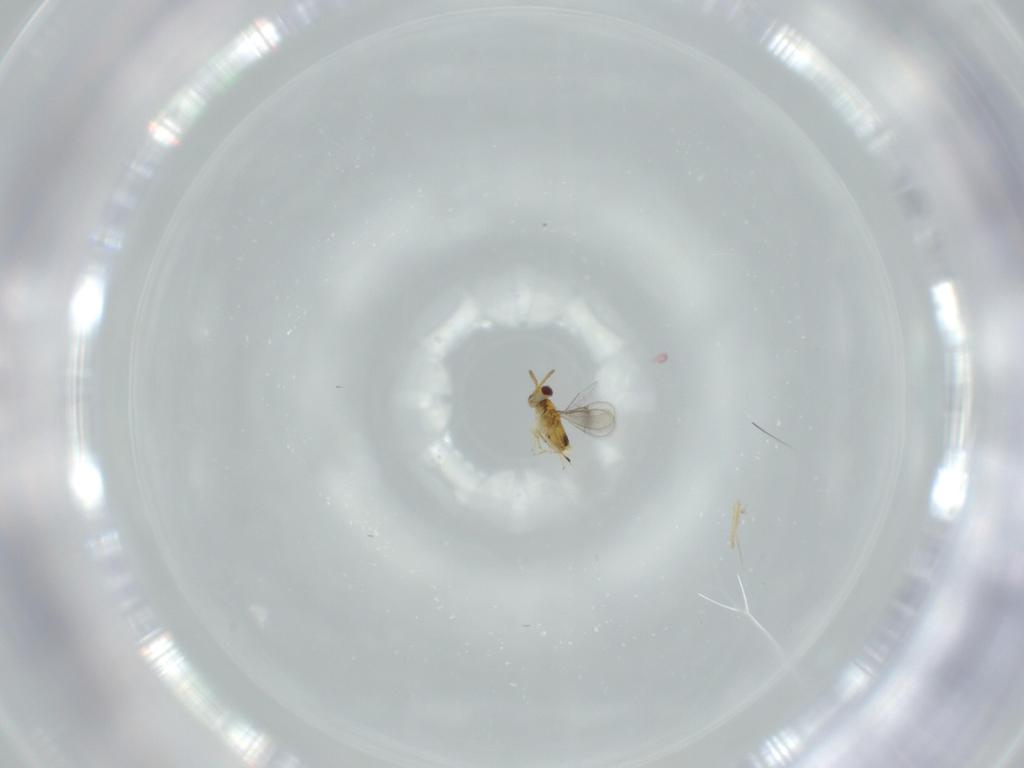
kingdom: Animalia
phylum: Arthropoda
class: Insecta
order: Hymenoptera
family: Aphelinidae
